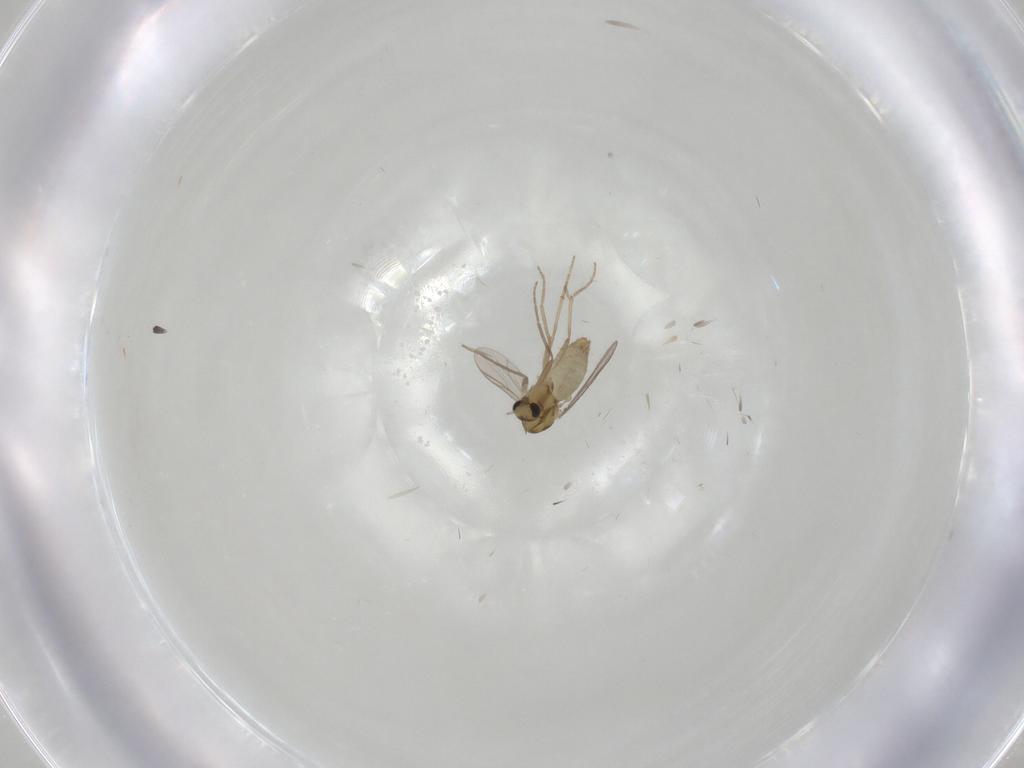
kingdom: Animalia
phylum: Arthropoda
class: Insecta
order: Diptera
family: Chironomidae
